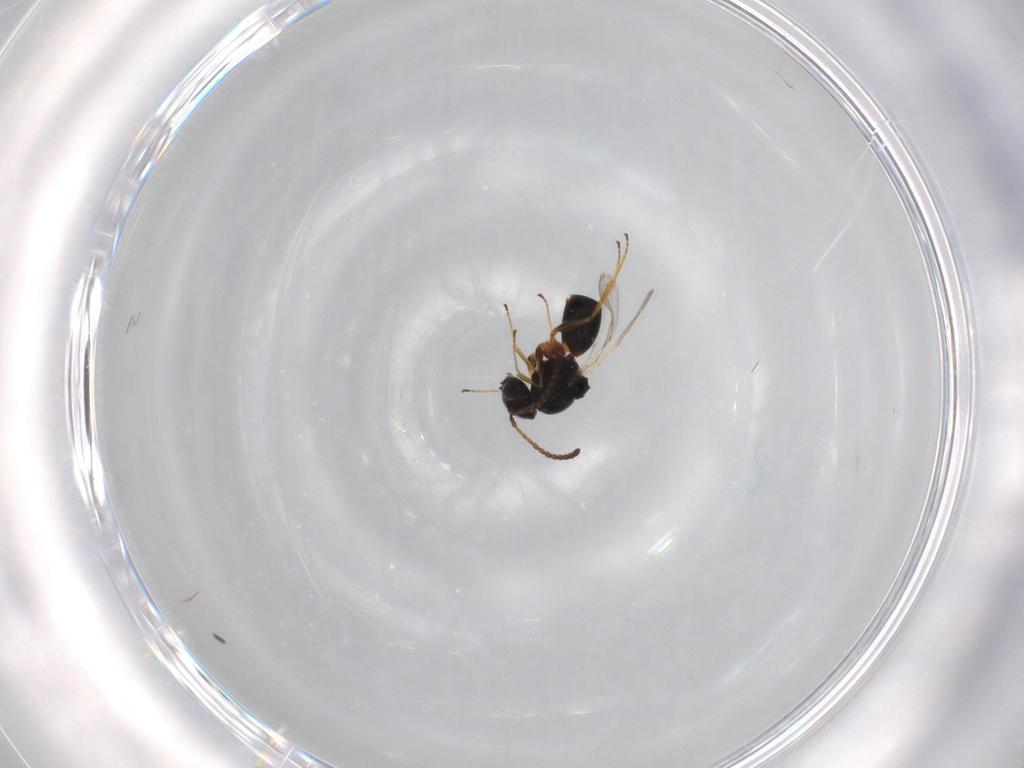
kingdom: Animalia
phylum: Arthropoda
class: Insecta
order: Hymenoptera
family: Figitidae
